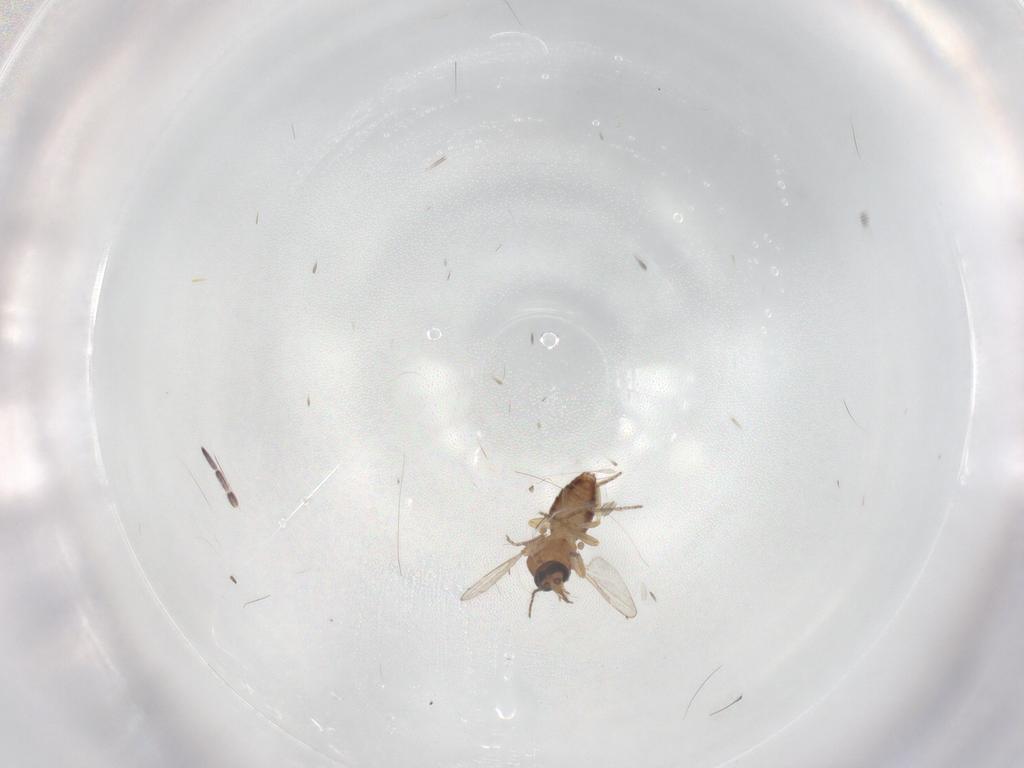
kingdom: Animalia
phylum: Arthropoda
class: Insecta
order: Diptera
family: Ceratopogonidae
